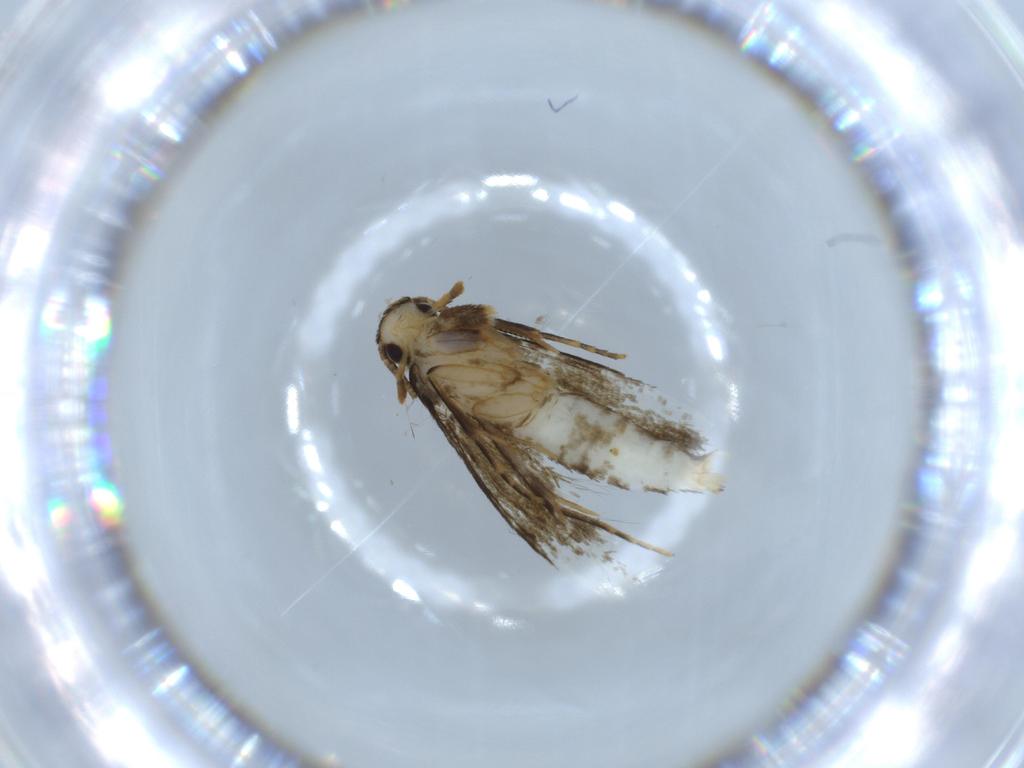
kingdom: Animalia
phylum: Arthropoda
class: Insecta
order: Lepidoptera
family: Tineidae
